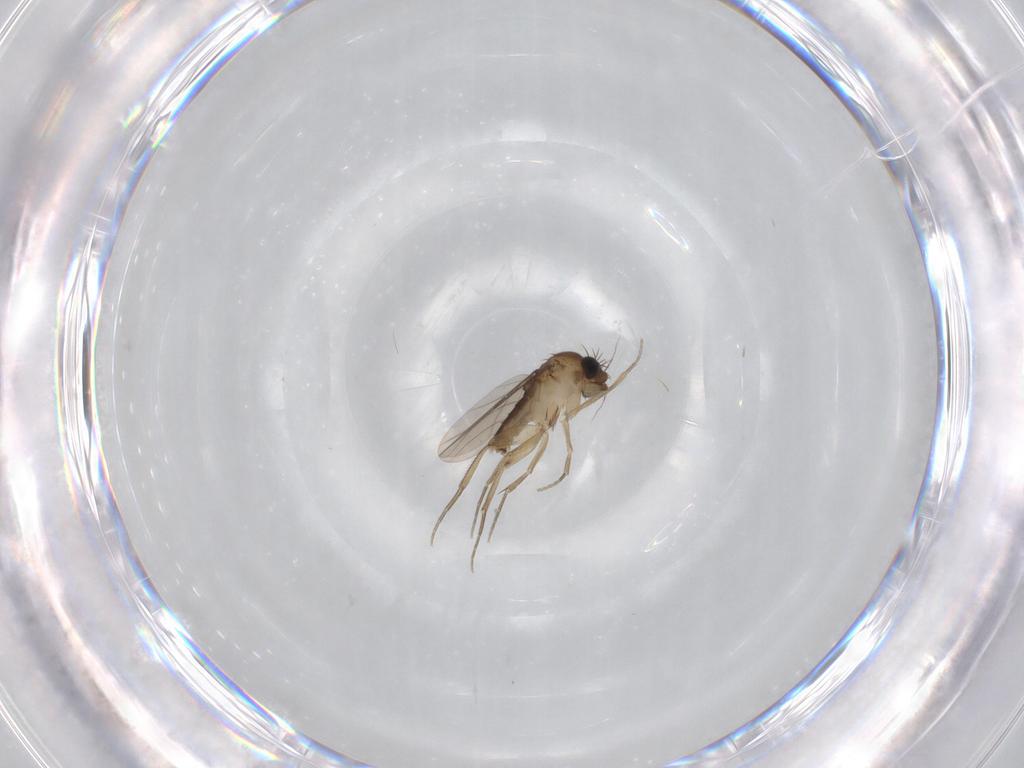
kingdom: Animalia
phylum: Arthropoda
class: Insecta
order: Diptera
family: Phoridae
